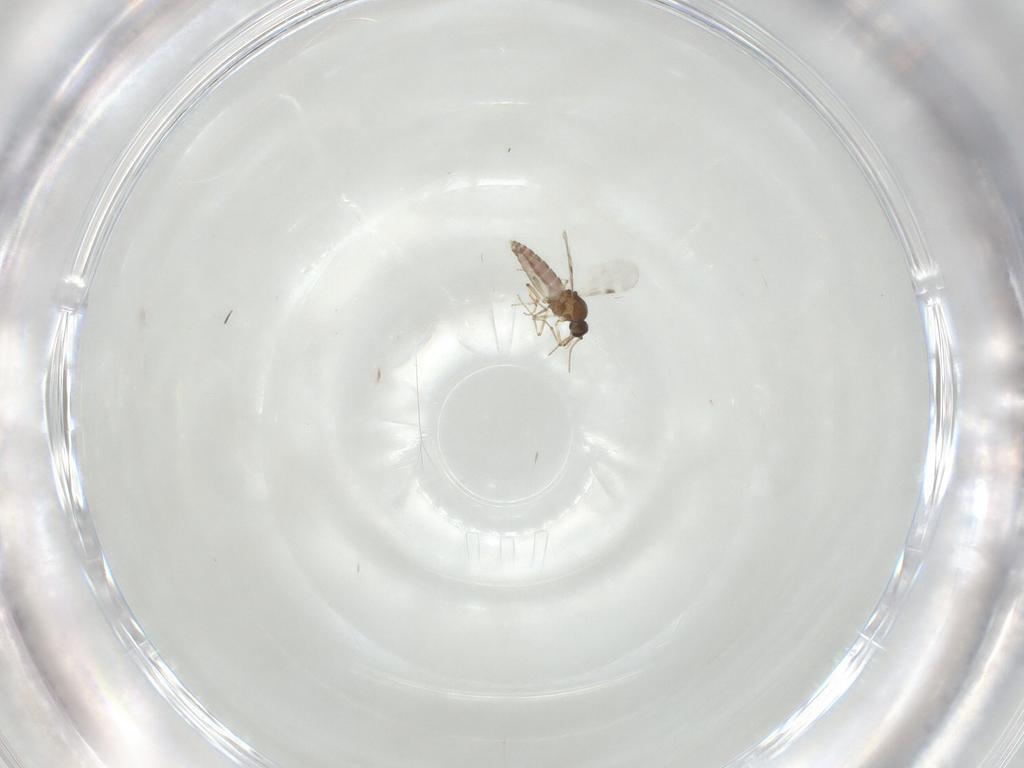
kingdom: Animalia
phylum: Arthropoda
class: Insecta
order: Diptera
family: Cecidomyiidae
